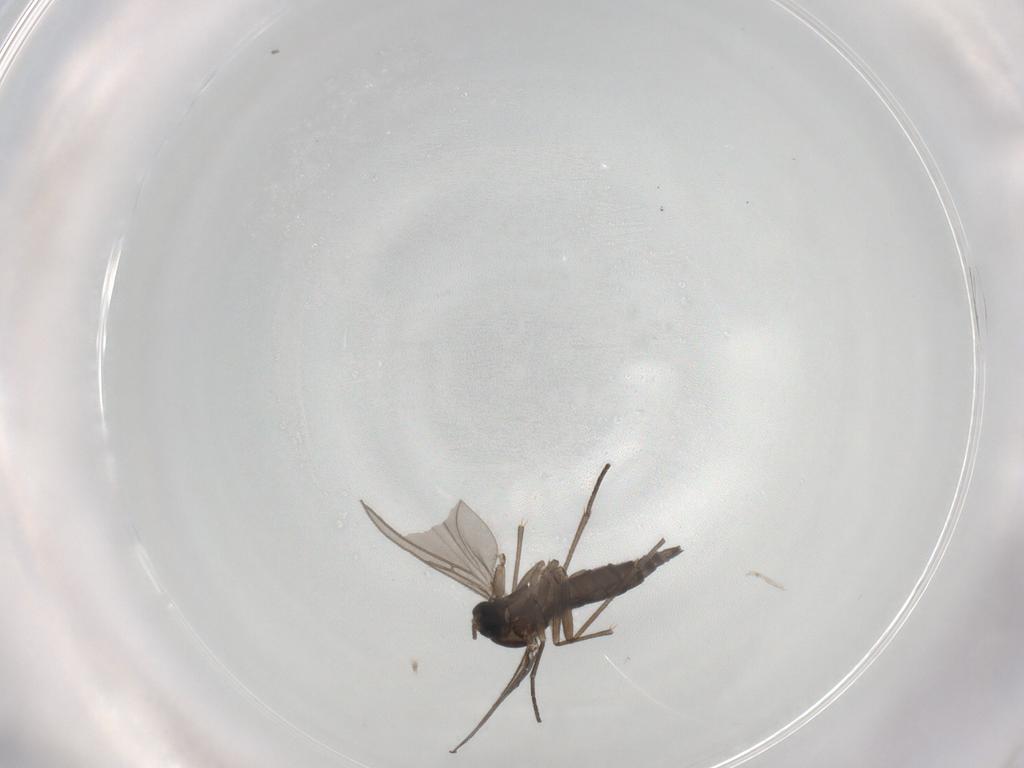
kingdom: Animalia
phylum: Arthropoda
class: Insecta
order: Diptera
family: Sciaridae
